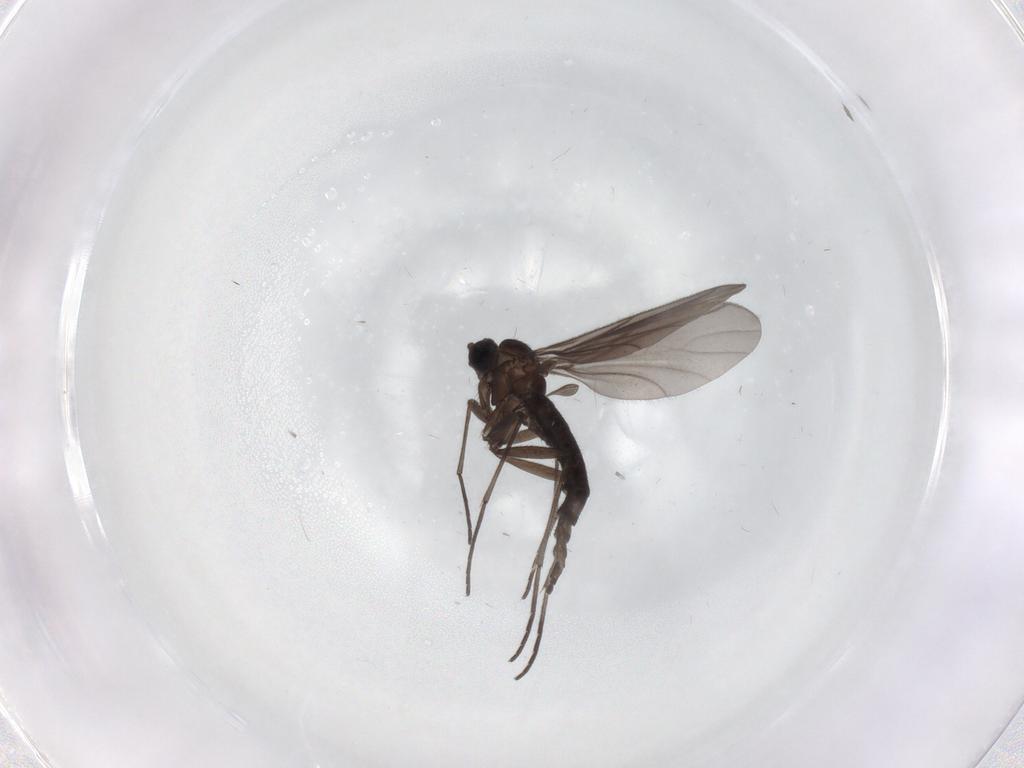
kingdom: Animalia
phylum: Arthropoda
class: Insecta
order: Diptera
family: Sciaridae
